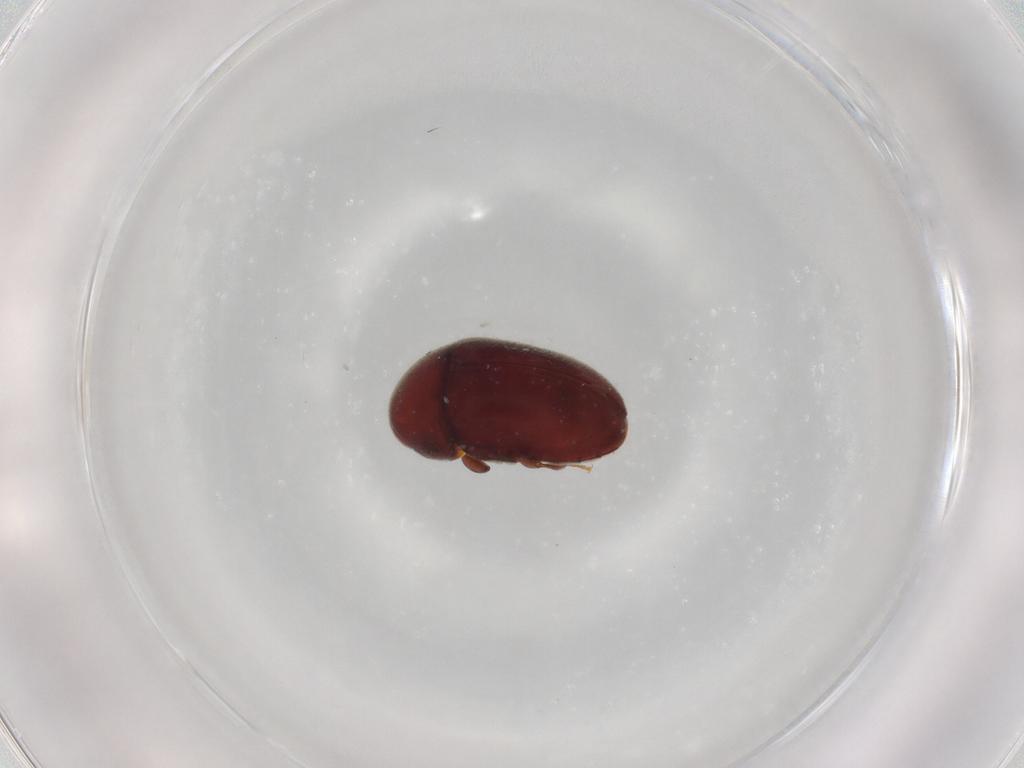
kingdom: Animalia
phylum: Arthropoda
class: Insecta
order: Coleoptera
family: Ptinidae
